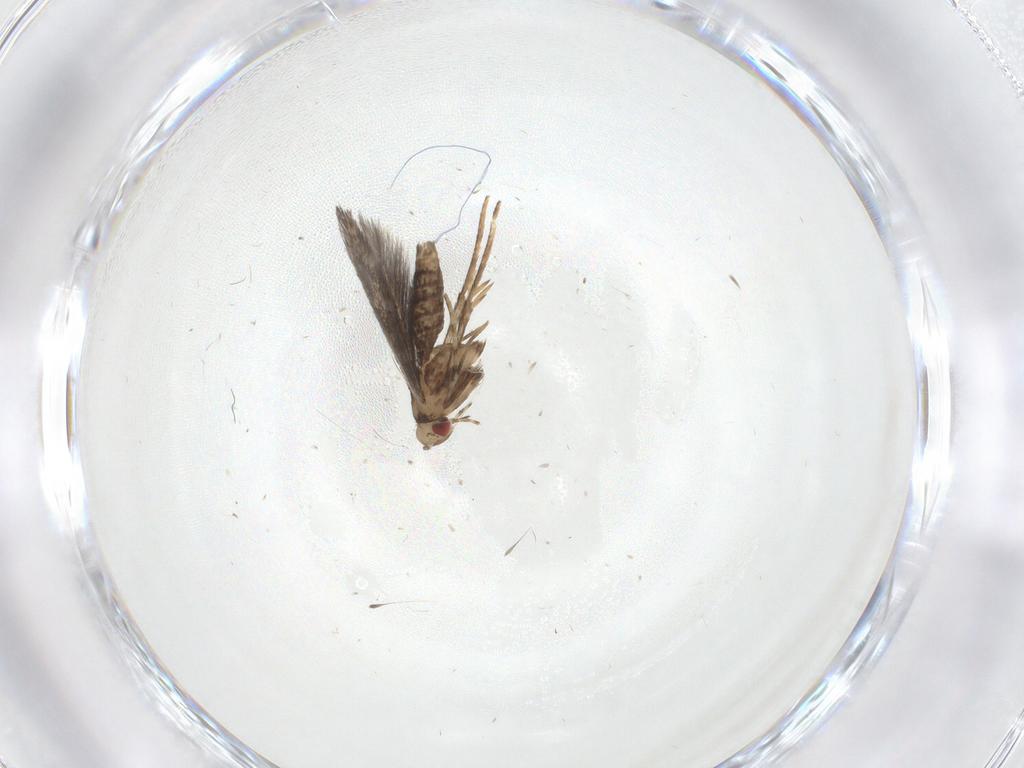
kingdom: Animalia
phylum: Arthropoda
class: Insecta
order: Lepidoptera
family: Gracillariidae
